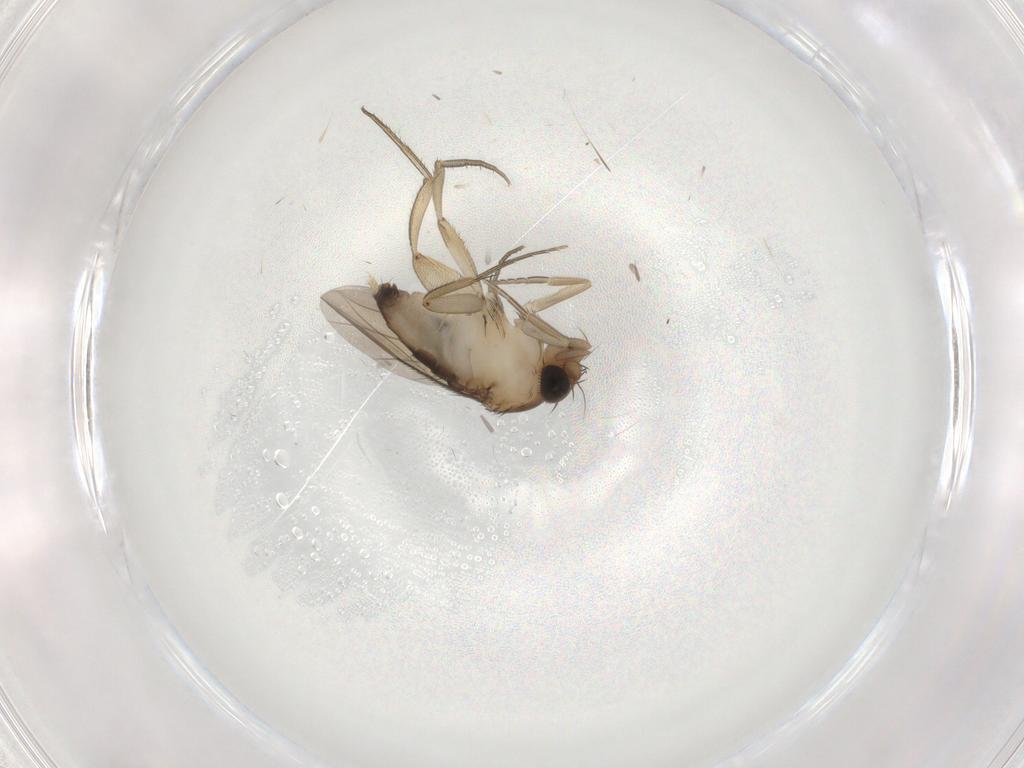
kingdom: Animalia
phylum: Arthropoda
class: Insecta
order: Diptera
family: Phoridae
